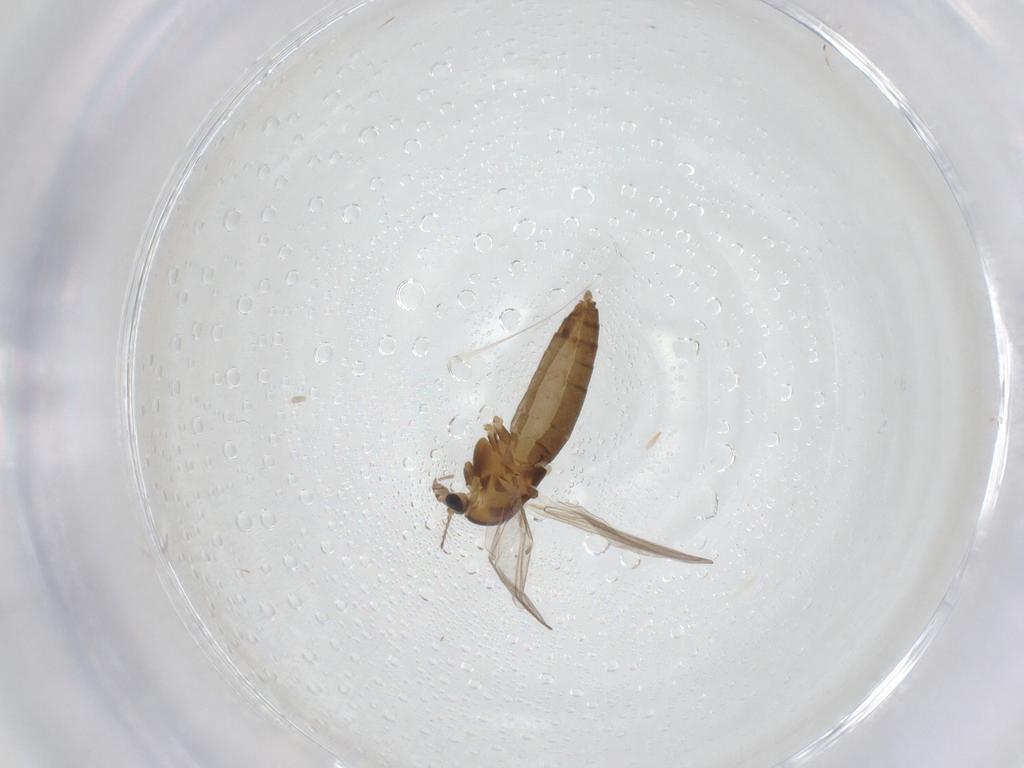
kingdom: Animalia
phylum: Arthropoda
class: Insecta
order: Diptera
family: Chironomidae
